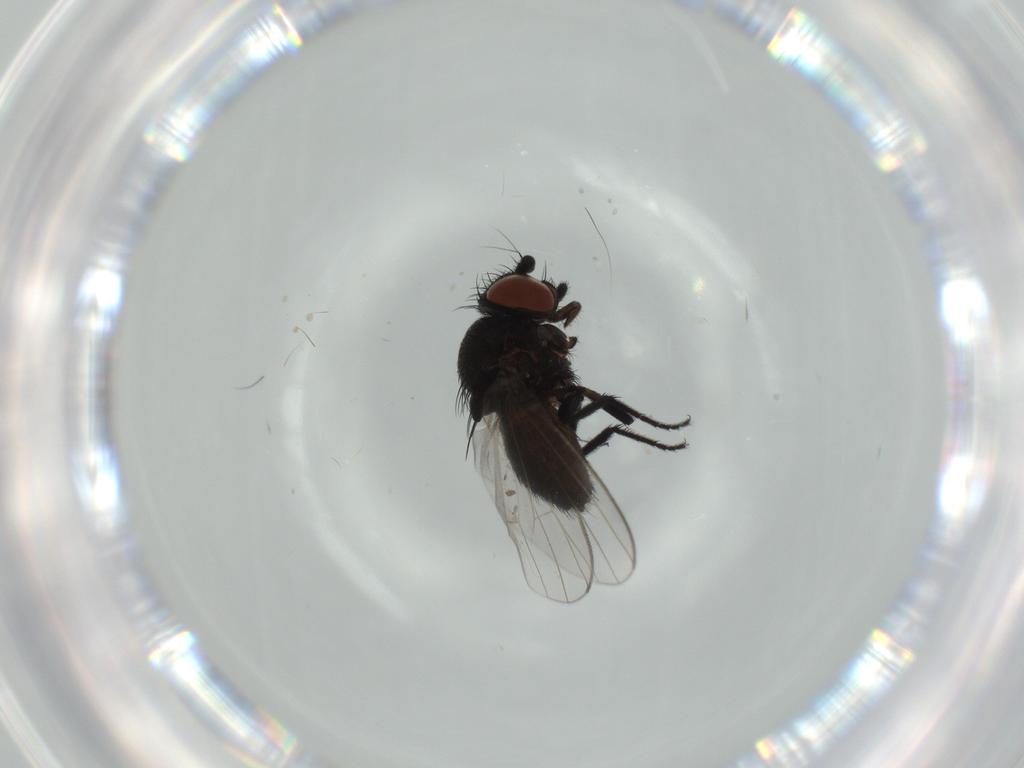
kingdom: Animalia
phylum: Arthropoda
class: Insecta
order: Diptera
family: Milichiidae
